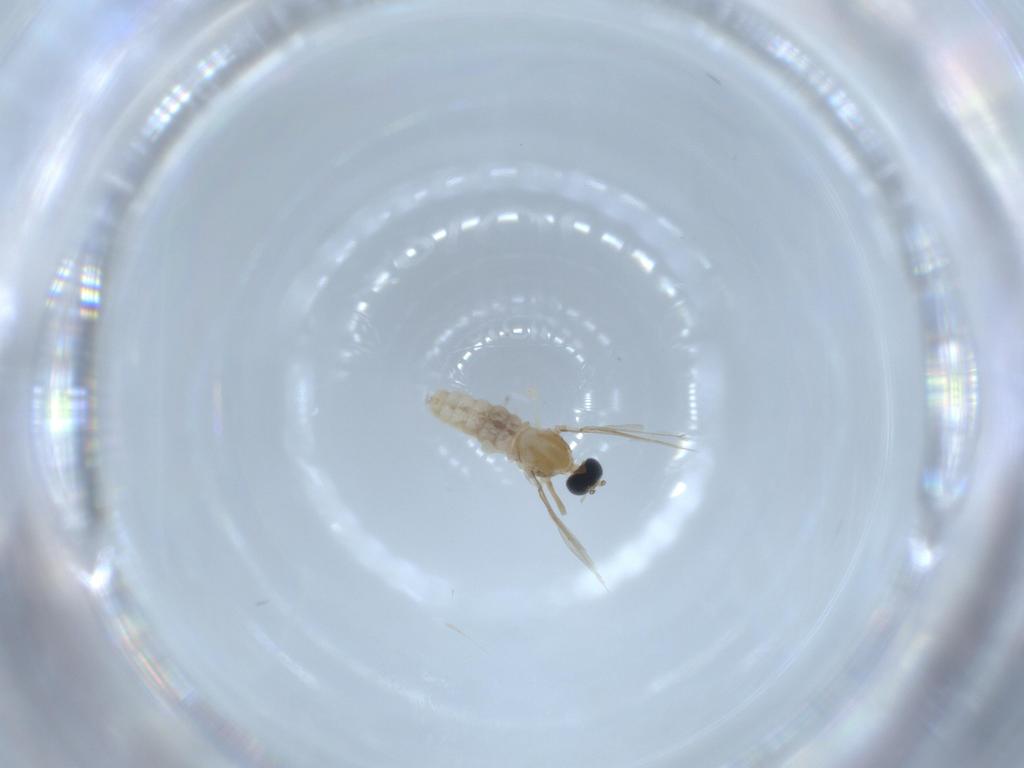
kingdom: Animalia
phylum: Arthropoda
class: Insecta
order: Diptera
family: Cecidomyiidae
